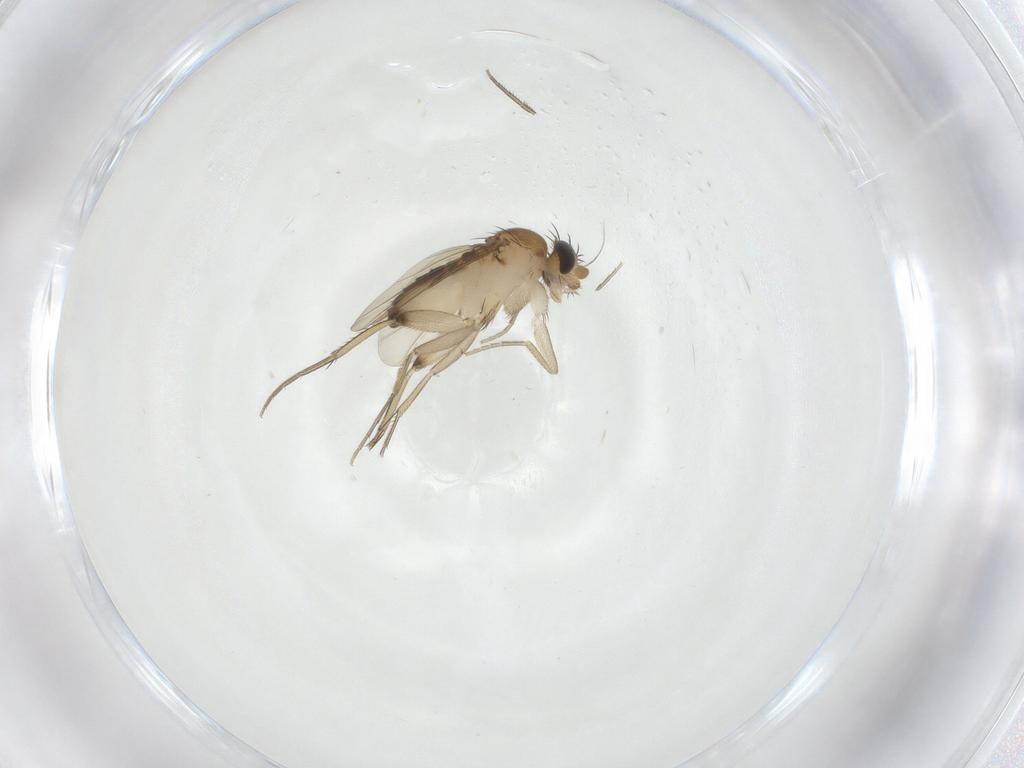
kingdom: Animalia
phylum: Arthropoda
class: Insecta
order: Diptera
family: Phoridae
